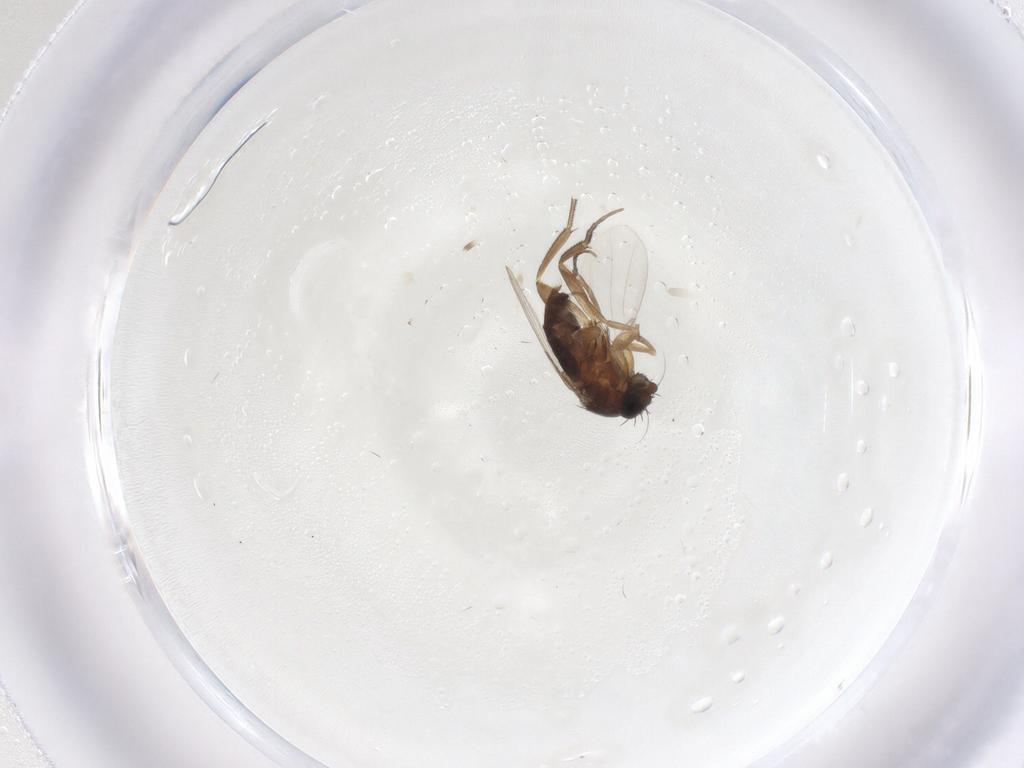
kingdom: Animalia
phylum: Arthropoda
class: Insecta
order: Diptera
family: Phoridae
